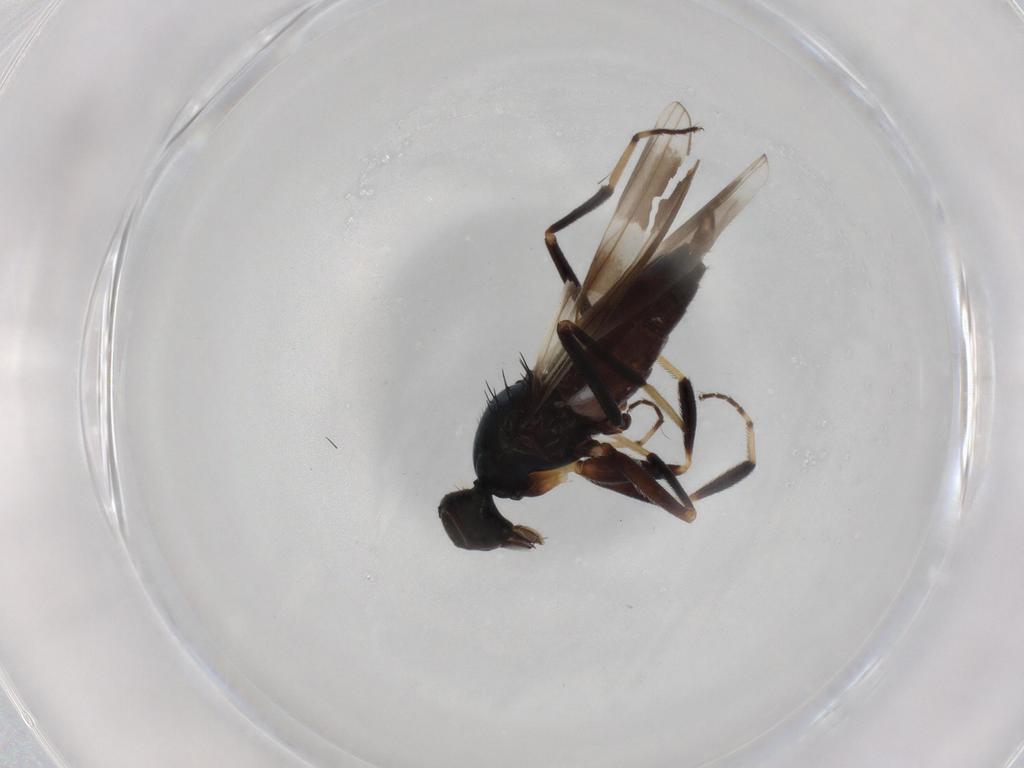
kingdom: Animalia
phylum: Arthropoda
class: Insecta
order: Diptera
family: Hybotidae
